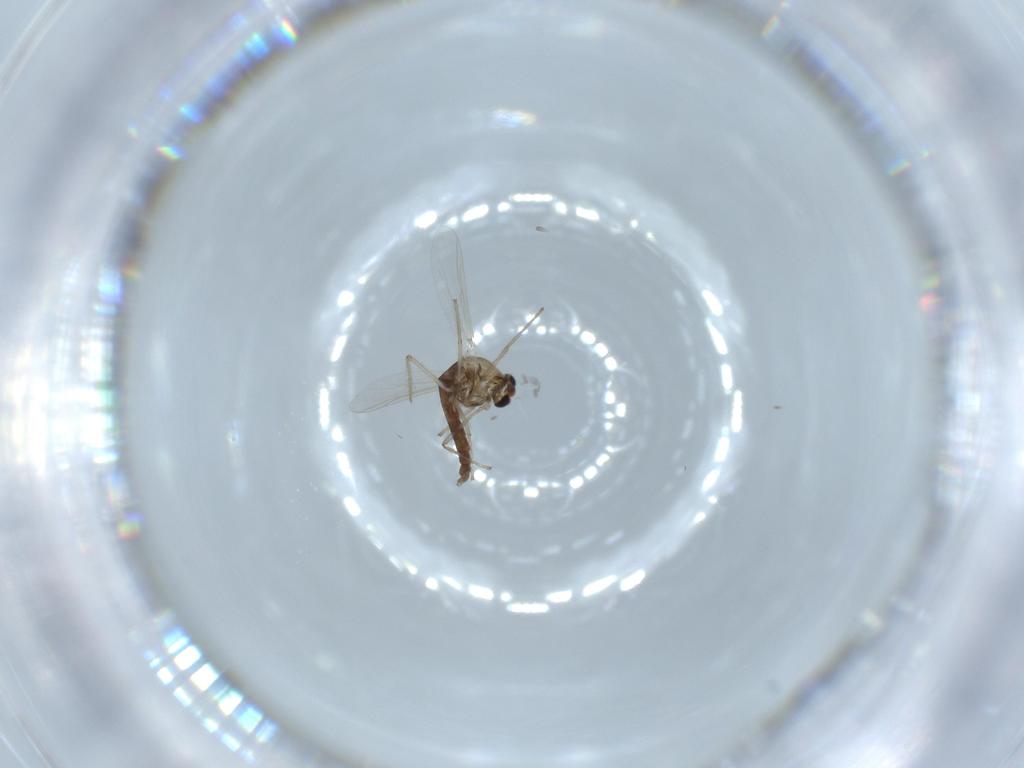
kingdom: Animalia
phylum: Arthropoda
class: Insecta
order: Diptera
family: Chironomidae
